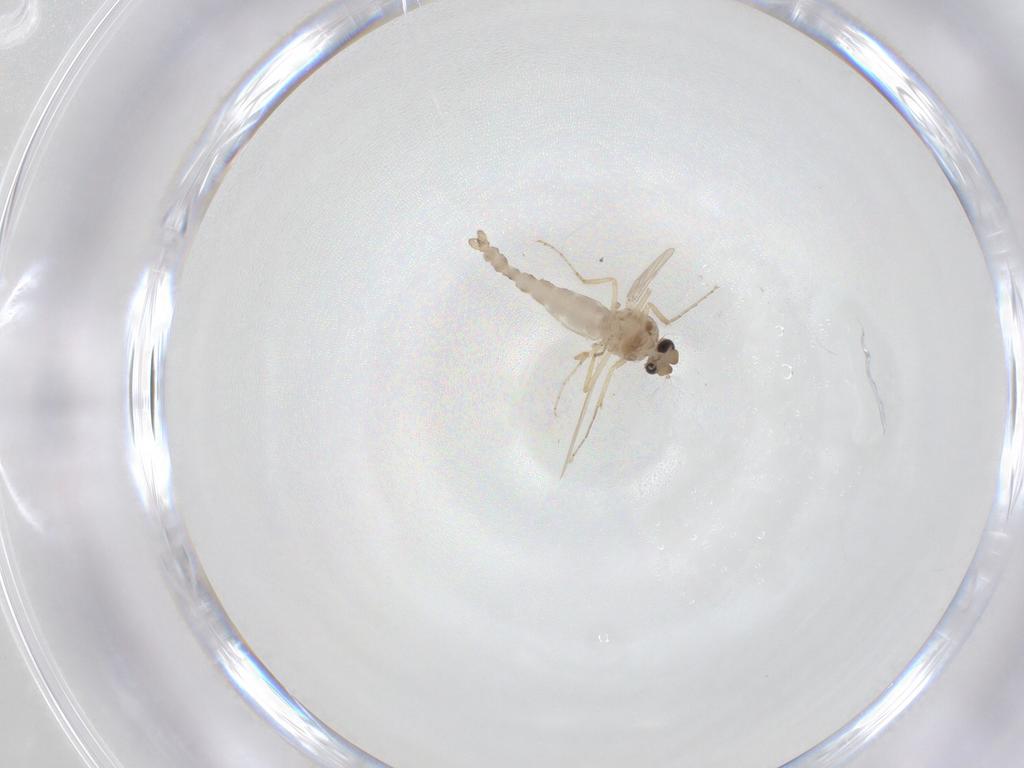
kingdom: Animalia
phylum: Arthropoda
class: Insecta
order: Diptera
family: Ceratopogonidae
